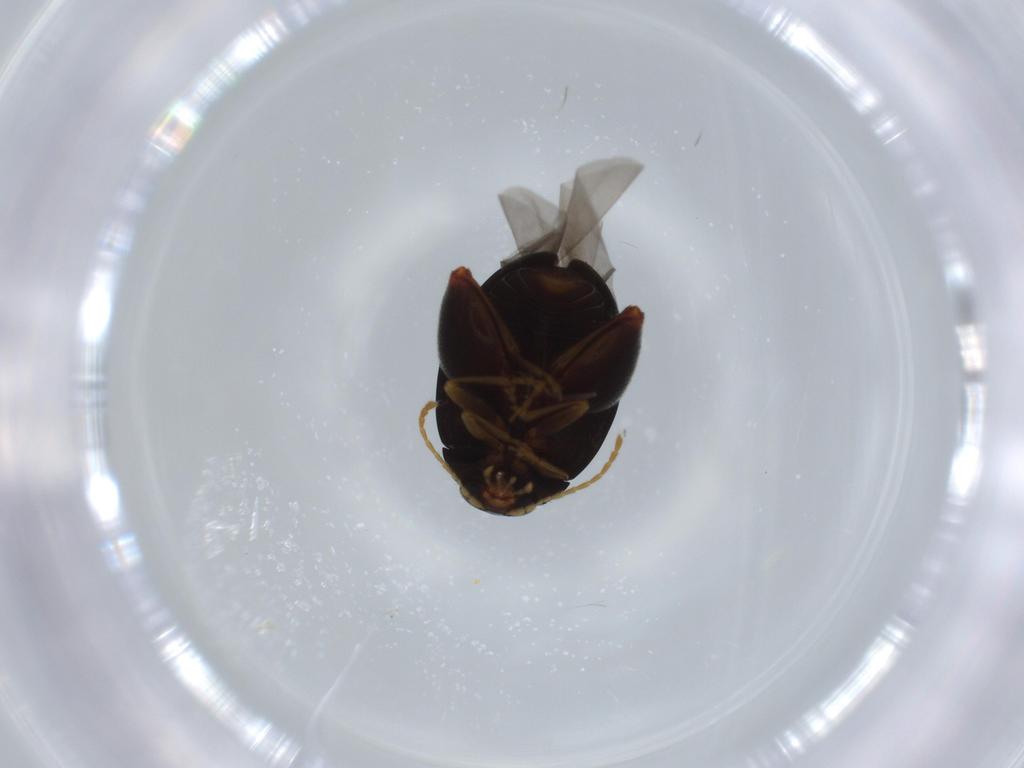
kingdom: Animalia
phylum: Arthropoda
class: Insecta
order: Coleoptera
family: Chrysomelidae
